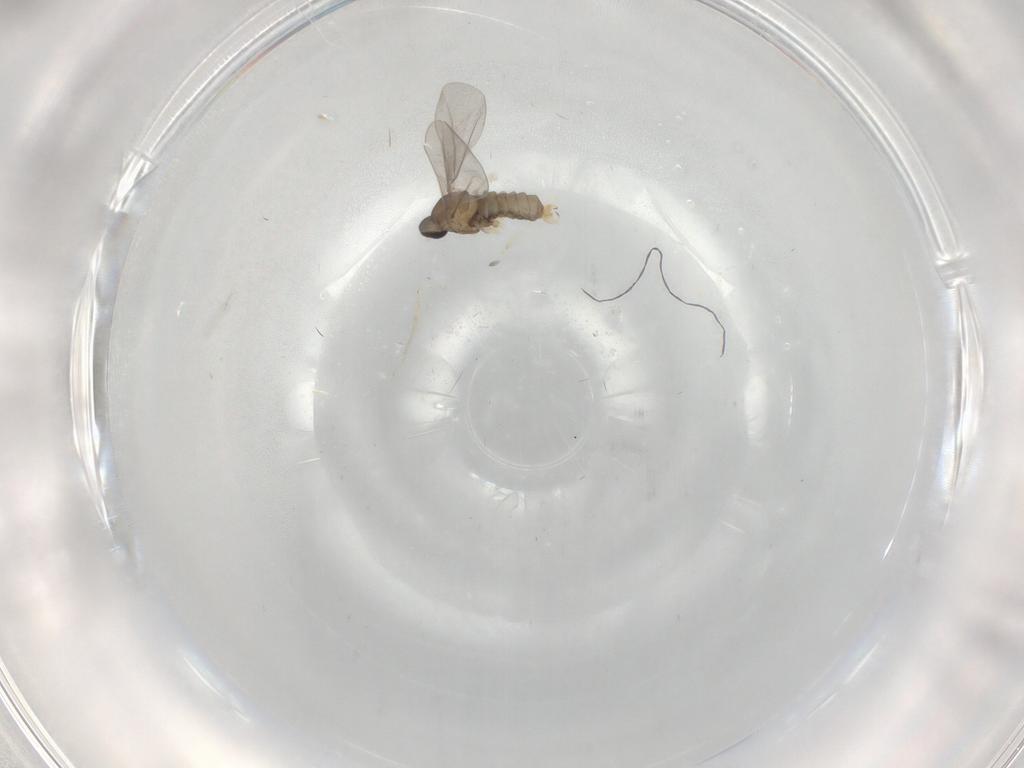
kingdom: Animalia
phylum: Arthropoda
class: Insecta
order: Diptera
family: Cecidomyiidae
